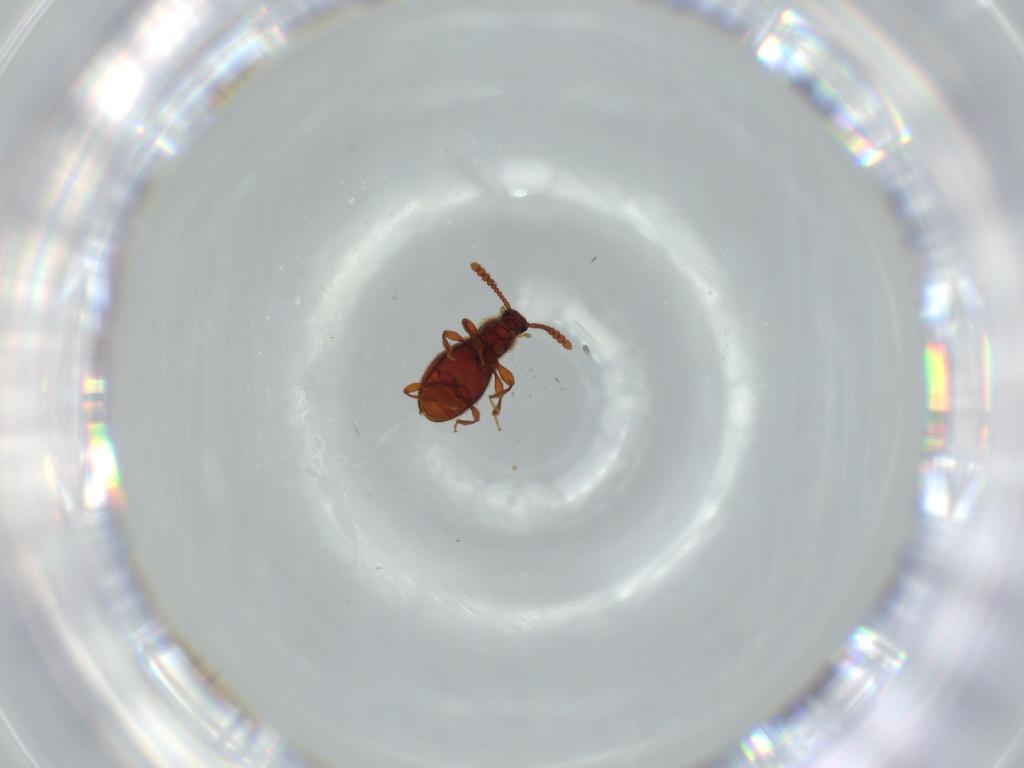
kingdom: Animalia
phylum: Arthropoda
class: Insecta
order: Coleoptera
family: Staphylinidae
